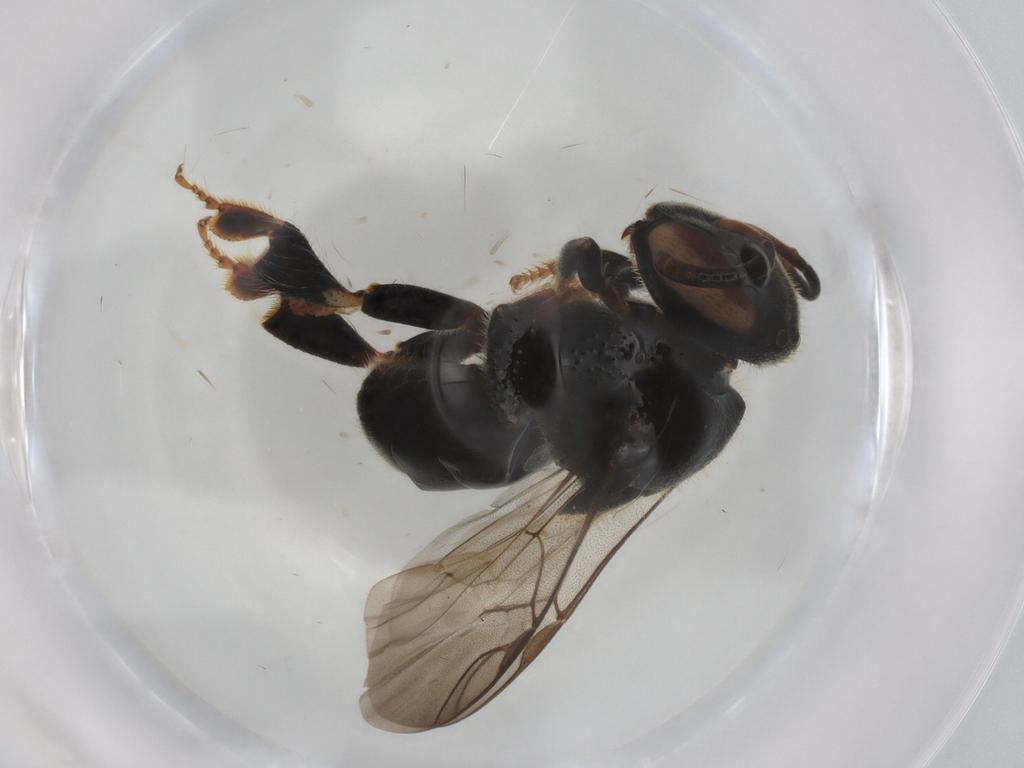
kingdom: Animalia
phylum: Arthropoda
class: Insecta
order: Hymenoptera
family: Apidae
